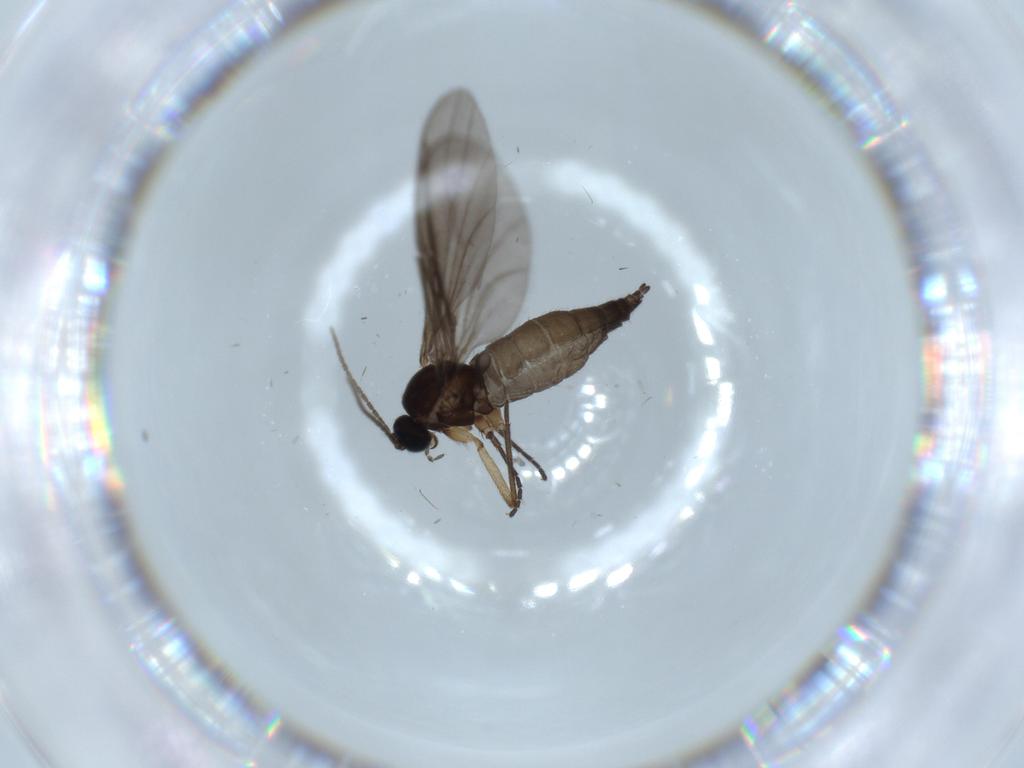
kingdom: Animalia
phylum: Arthropoda
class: Insecta
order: Diptera
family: Sciaridae
